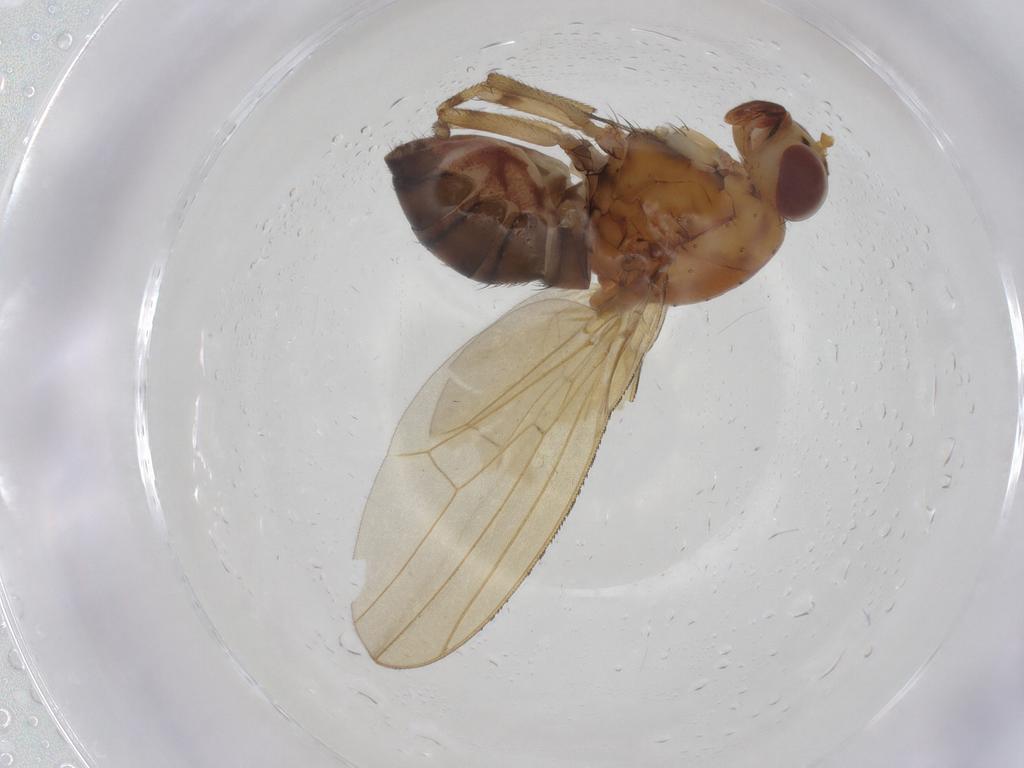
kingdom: Animalia
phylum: Arthropoda
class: Insecta
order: Diptera
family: Lauxaniidae
